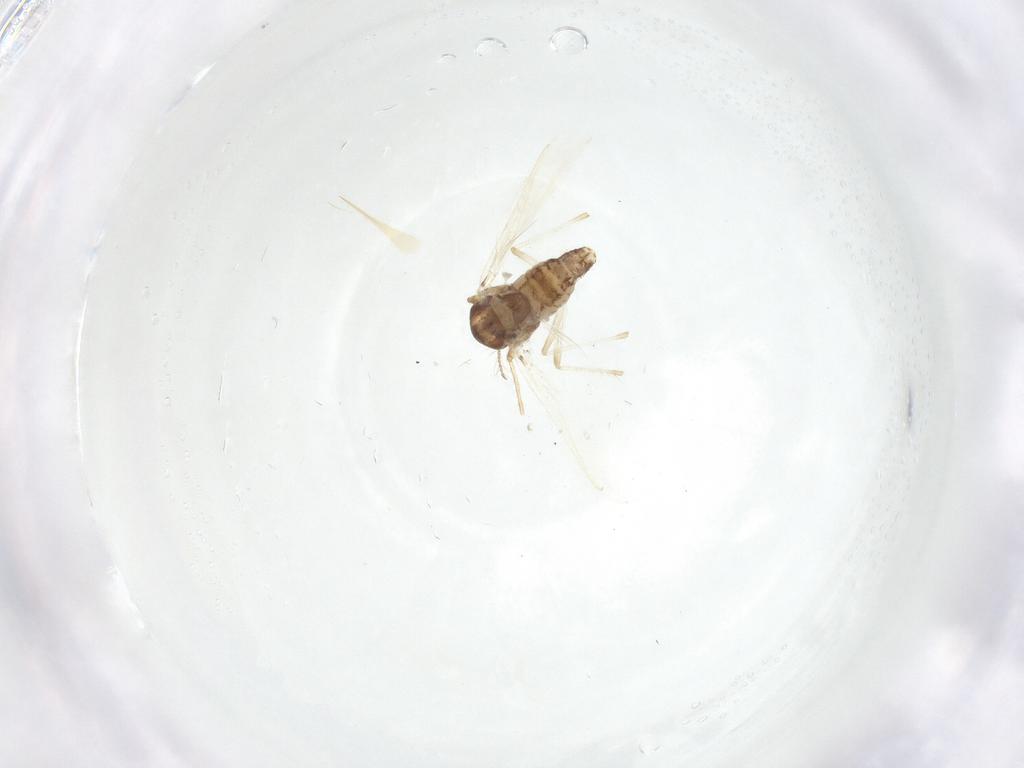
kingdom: Animalia
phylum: Arthropoda
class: Insecta
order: Diptera
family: Chironomidae
